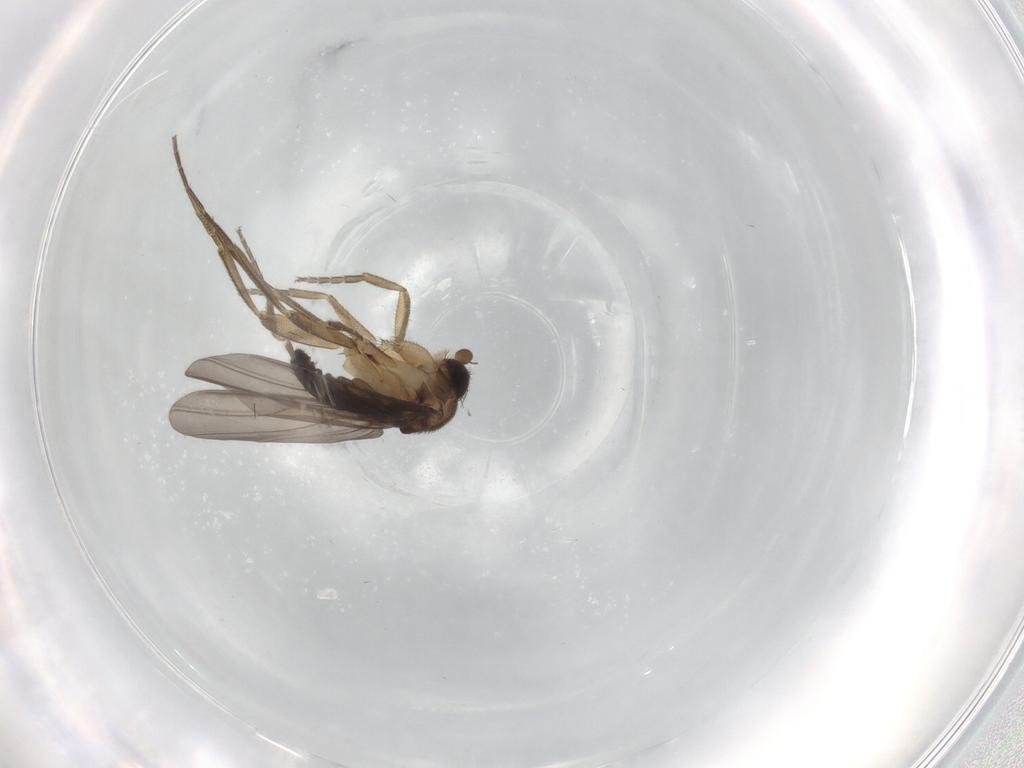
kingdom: Animalia
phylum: Arthropoda
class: Insecta
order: Diptera
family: Phoridae
